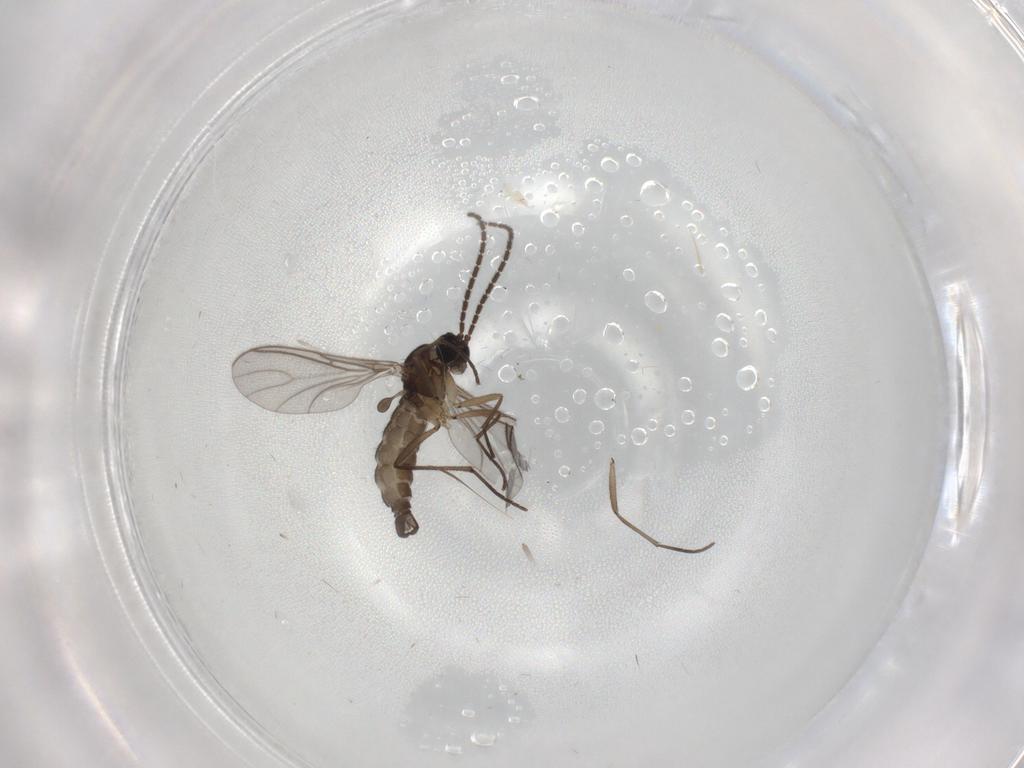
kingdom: Animalia
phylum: Arthropoda
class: Insecta
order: Diptera
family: Sciaridae
